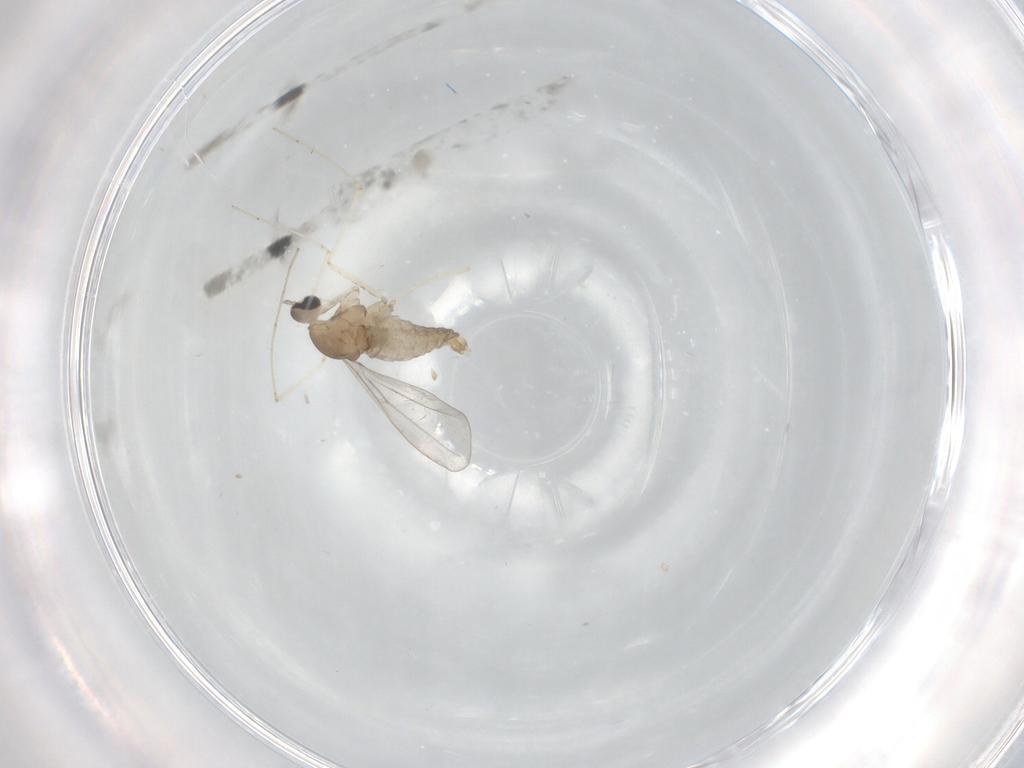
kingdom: Animalia
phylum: Arthropoda
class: Insecta
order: Diptera
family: Cecidomyiidae
